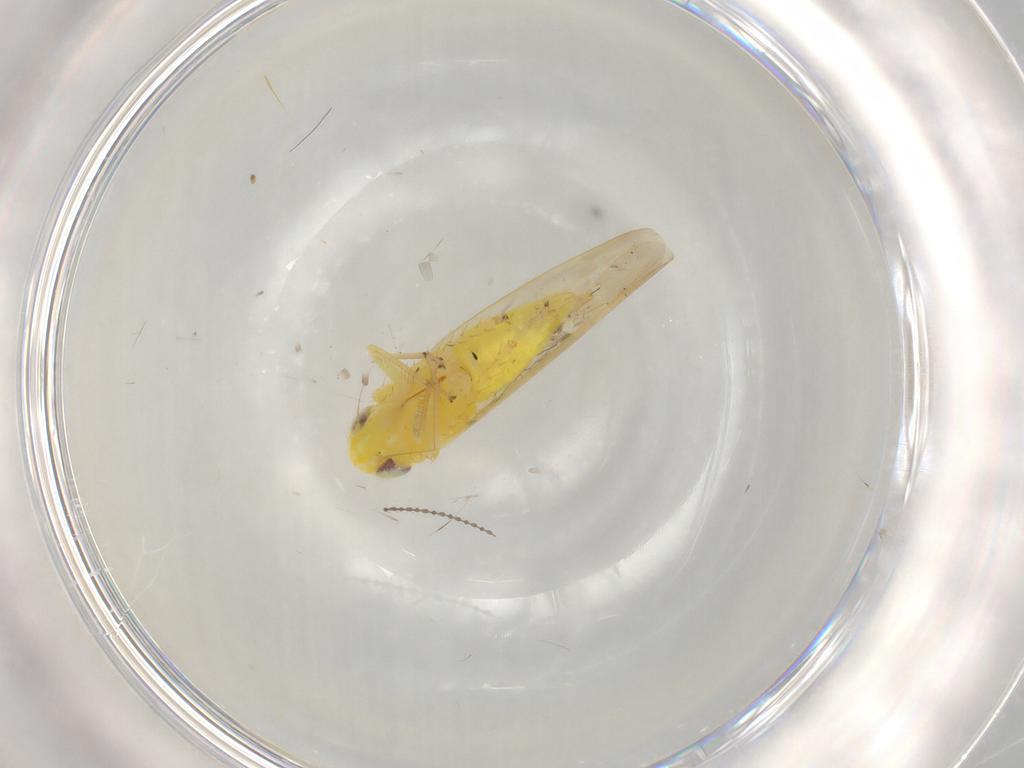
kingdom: Animalia
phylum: Arthropoda
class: Insecta
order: Hemiptera
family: Cicadellidae
